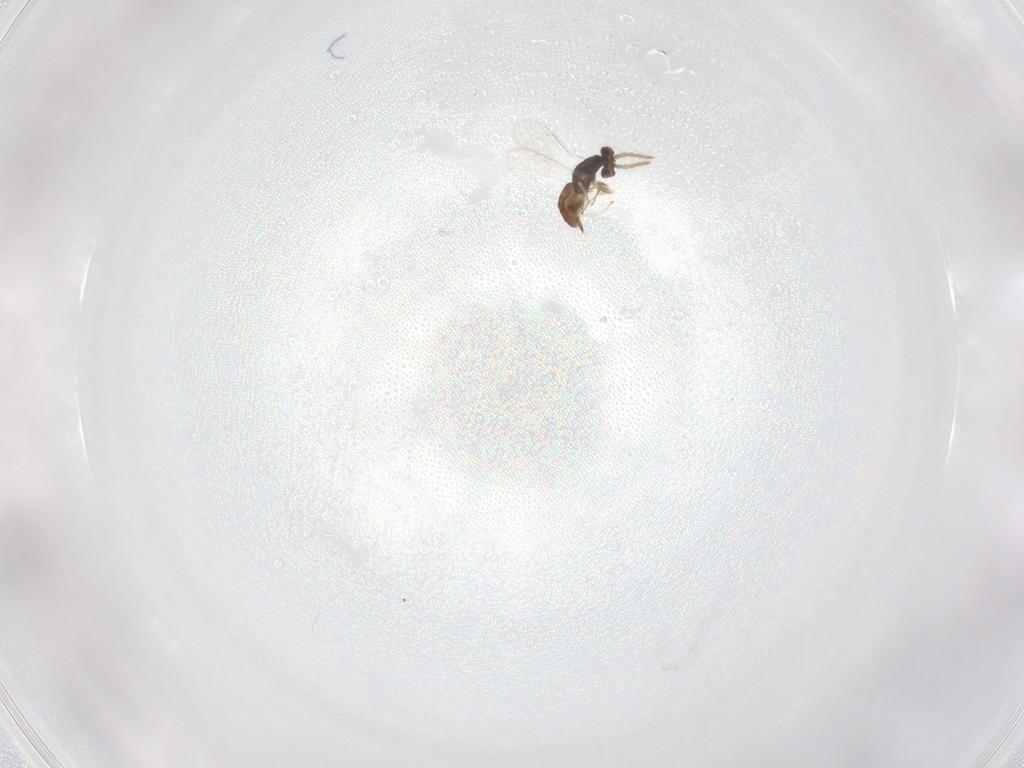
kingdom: Animalia
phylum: Arthropoda
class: Insecta
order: Hymenoptera
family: Eulophidae
